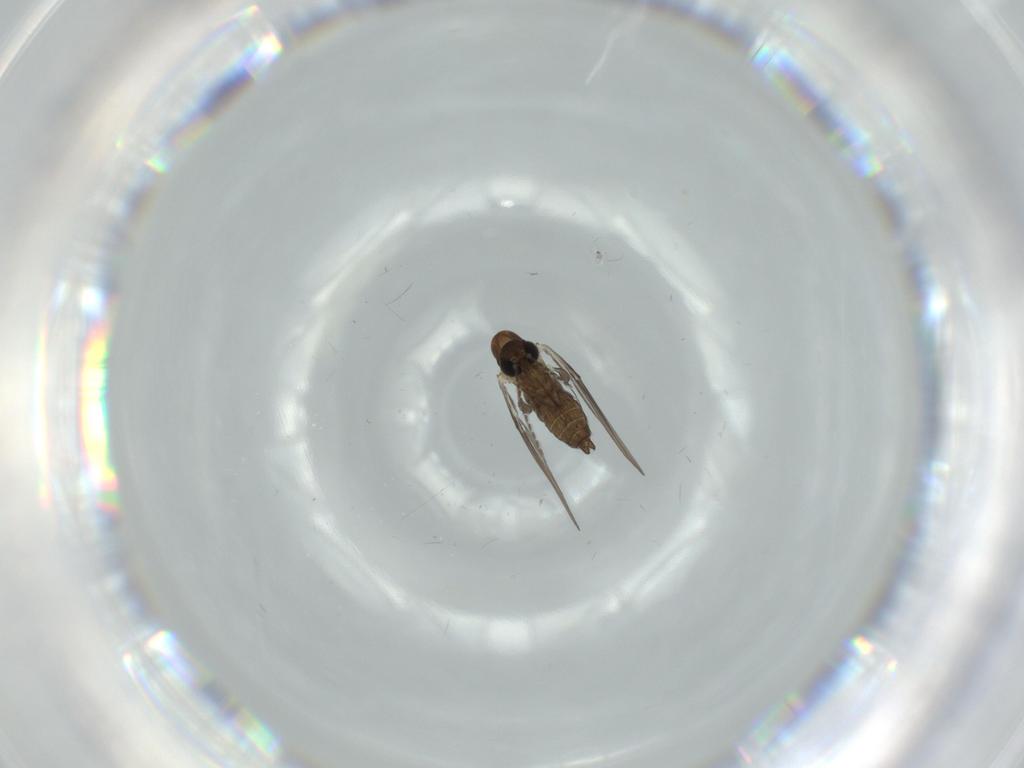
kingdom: Animalia
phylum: Arthropoda
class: Insecta
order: Diptera
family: Psychodidae
